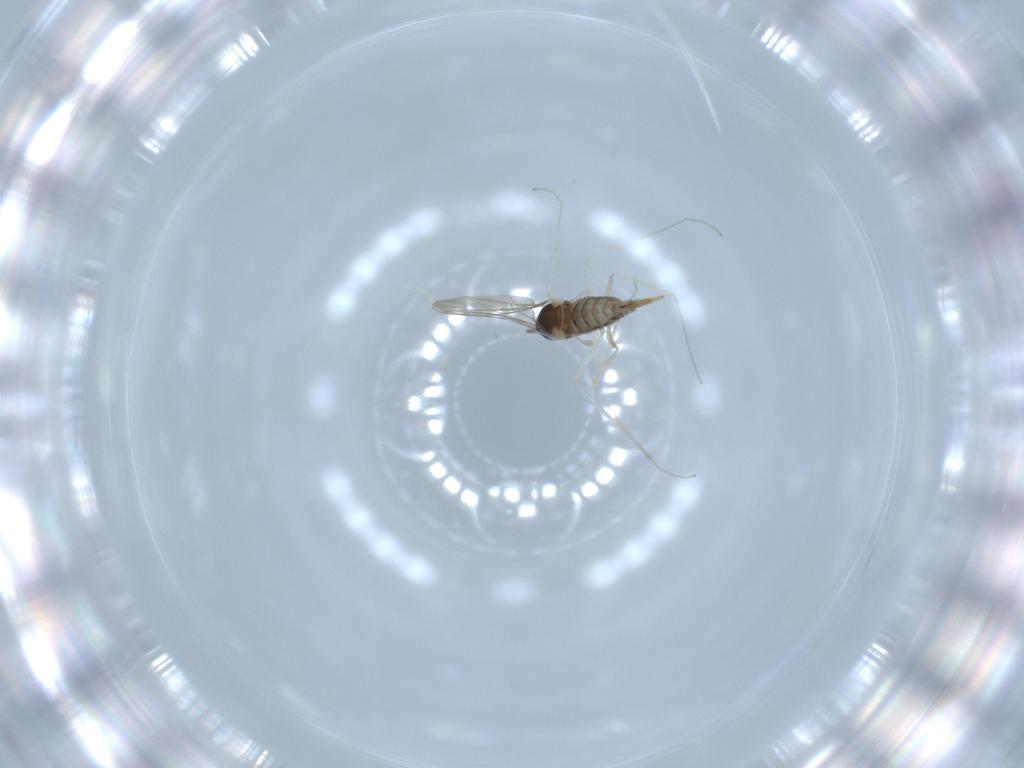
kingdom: Animalia
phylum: Arthropoda
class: Insecta
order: Diptera
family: Cecidomyiidae
